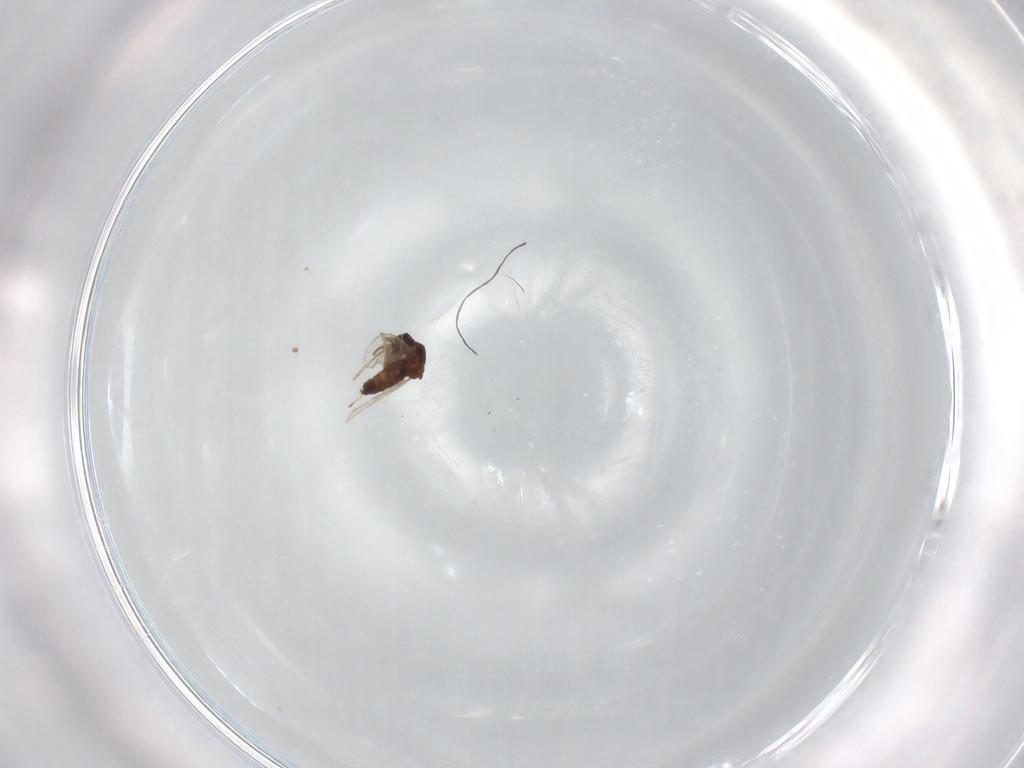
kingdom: Animalia
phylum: Arthropoda
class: Insecta
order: Diptera
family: Ceratopogonidae
